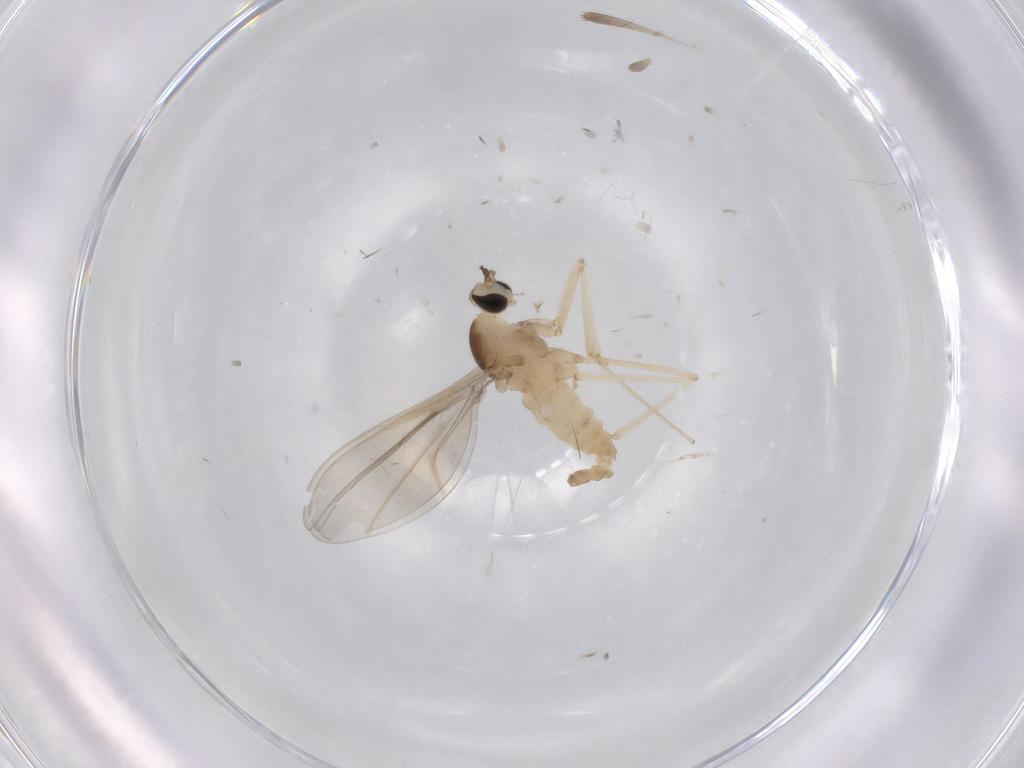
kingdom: Animalia
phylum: Arthropoda
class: Insecta
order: Diptera
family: Cecidomyiidae
